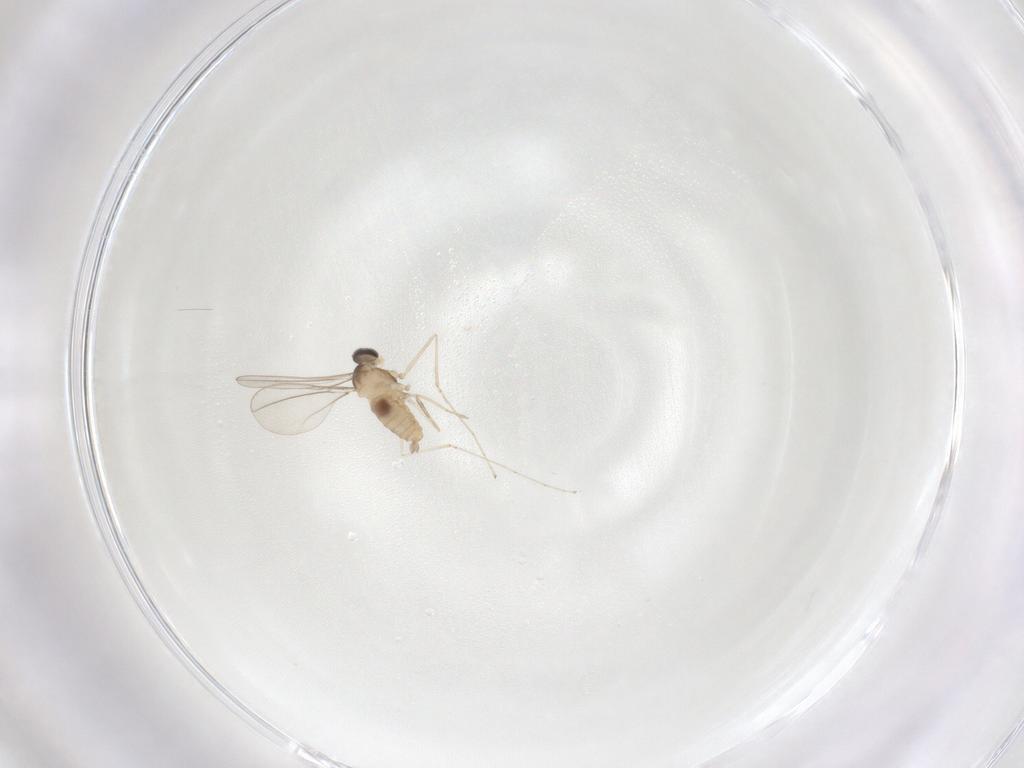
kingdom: Animalia
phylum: Arthropoda
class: Insecta
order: Diptera
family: Cecidomyiidae
